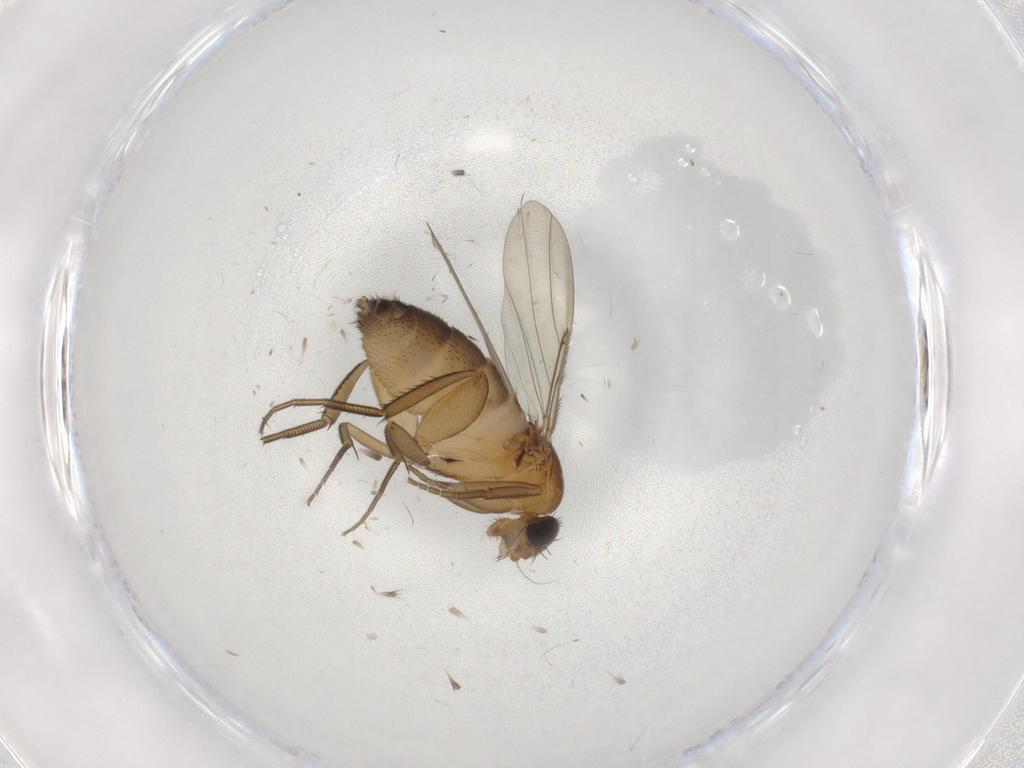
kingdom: Animalia
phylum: Arthropoda
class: Insecta
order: Diptera
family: Phoridae
